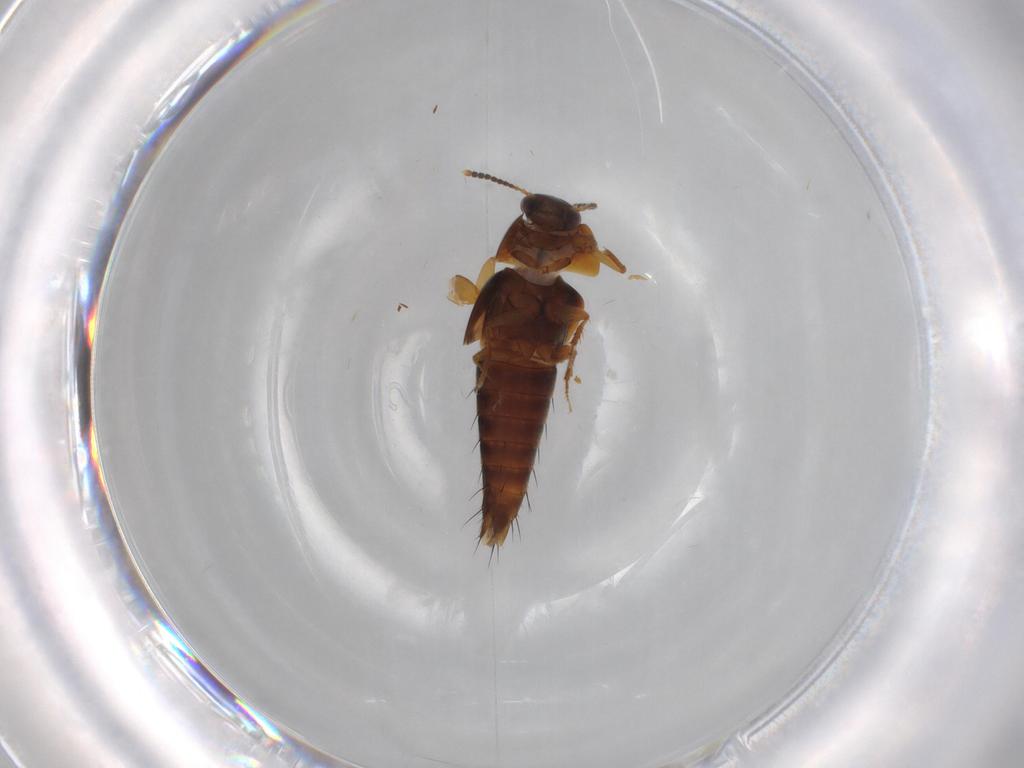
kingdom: Animalia
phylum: Arthropoda
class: Insecta
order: Coleoptera
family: Staphylinidae
